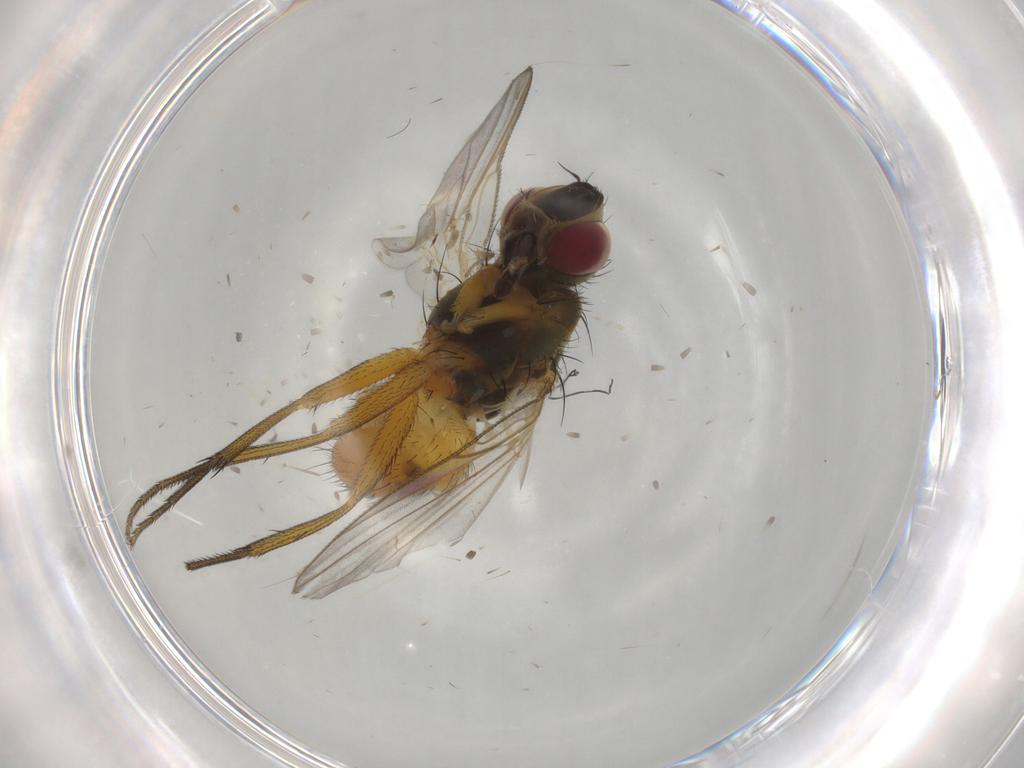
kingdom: Animalia
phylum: Arthropoda
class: Insecta
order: Diptera
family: Muscidae
